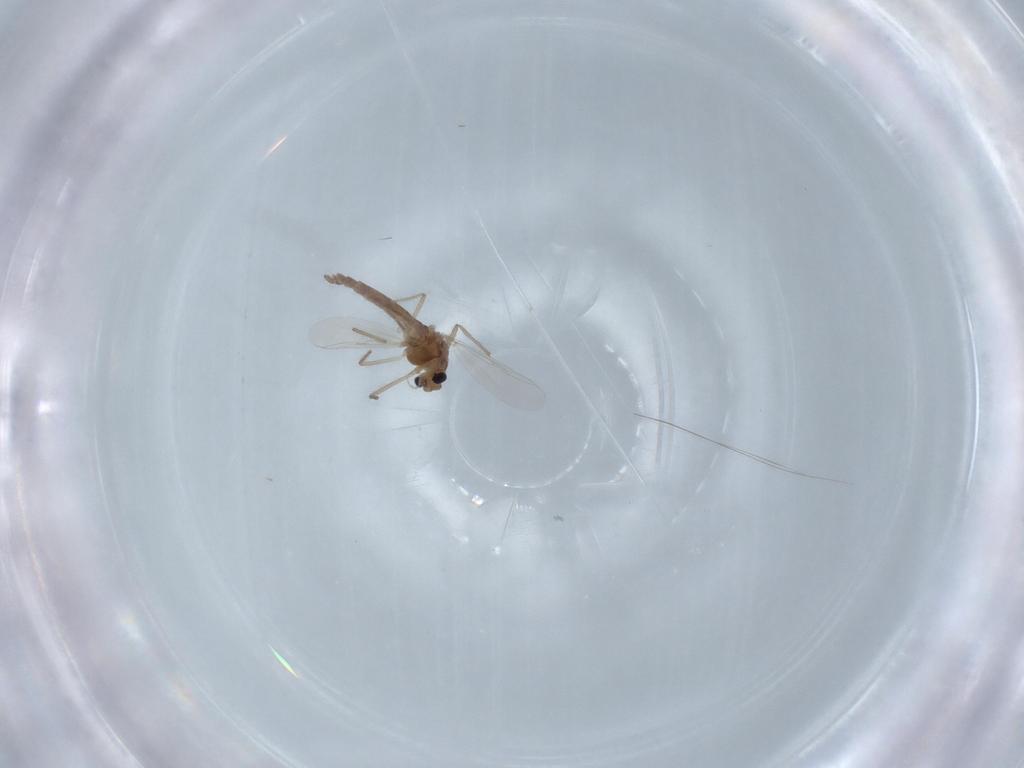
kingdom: Animalia
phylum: Arthropoda
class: Insecta
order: Diptera
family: Chironomidae
